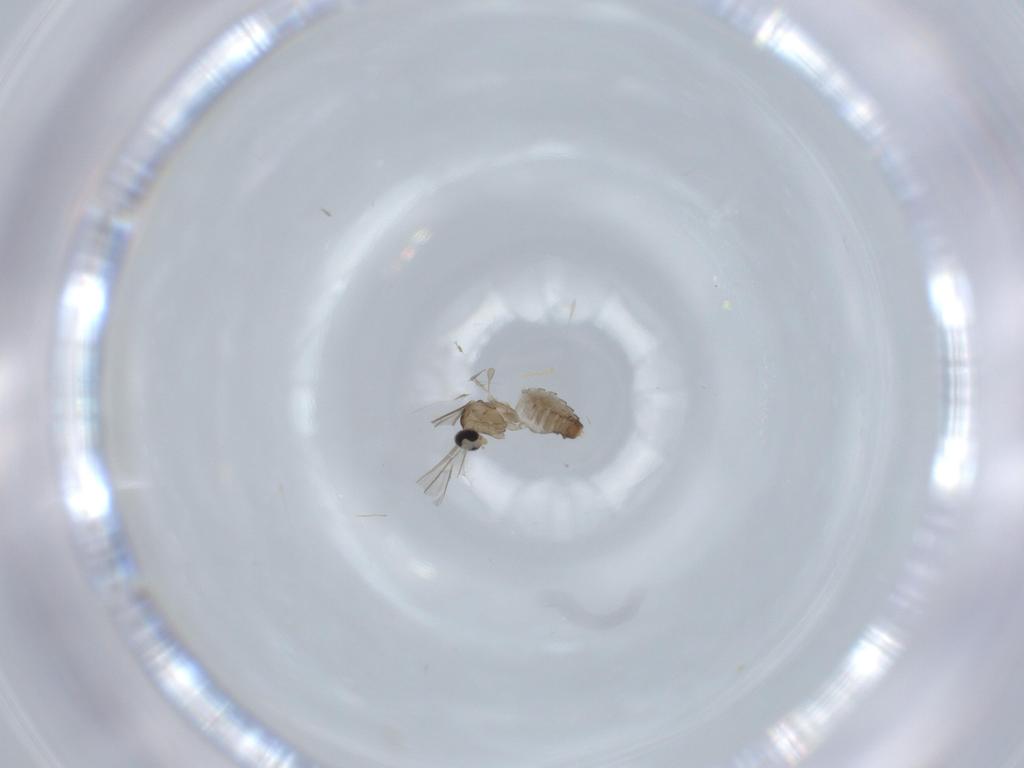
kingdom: Animalia
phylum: Arthropoda
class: Insecta
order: Diptera
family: Cecidomyiidae
